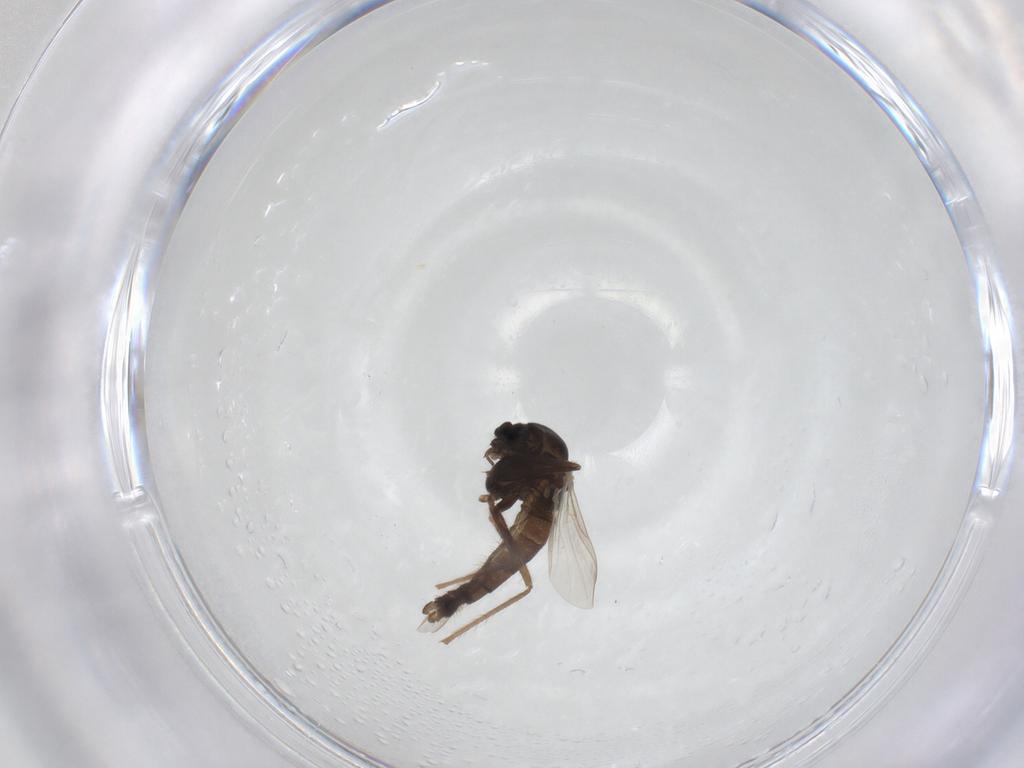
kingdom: Animalia
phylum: Arthropoda
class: Insecta
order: Diptera
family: Chironomidae
